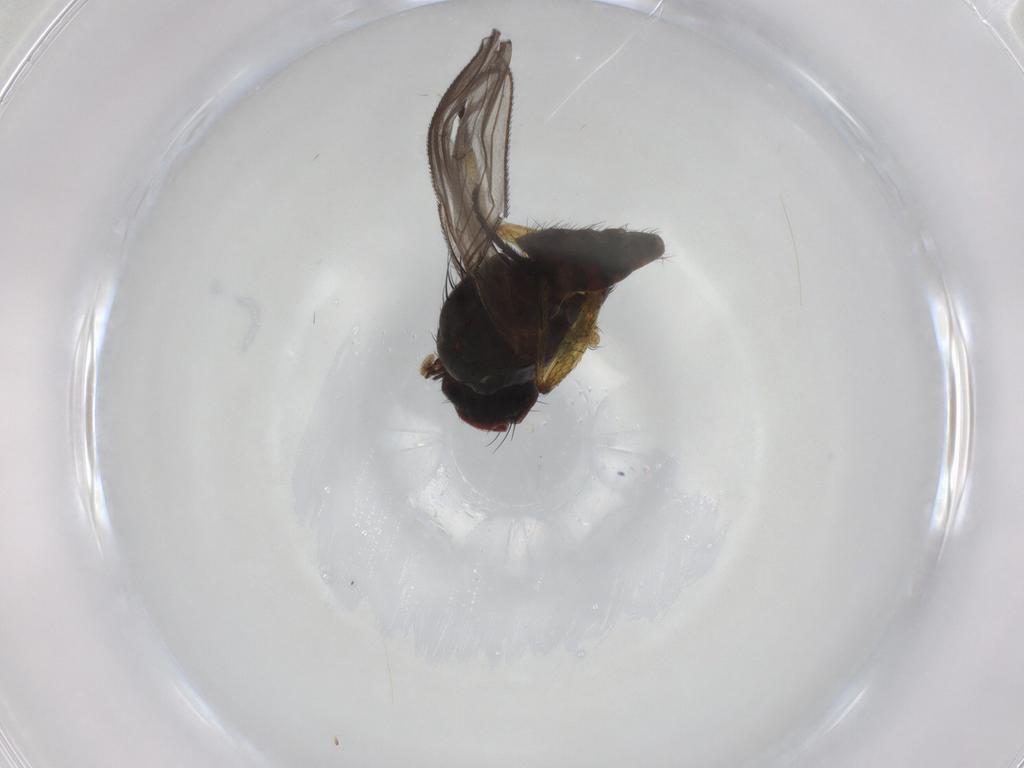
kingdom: Animalia
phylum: Arthropoda
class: Insecta
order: Diptera
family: Muscidae
